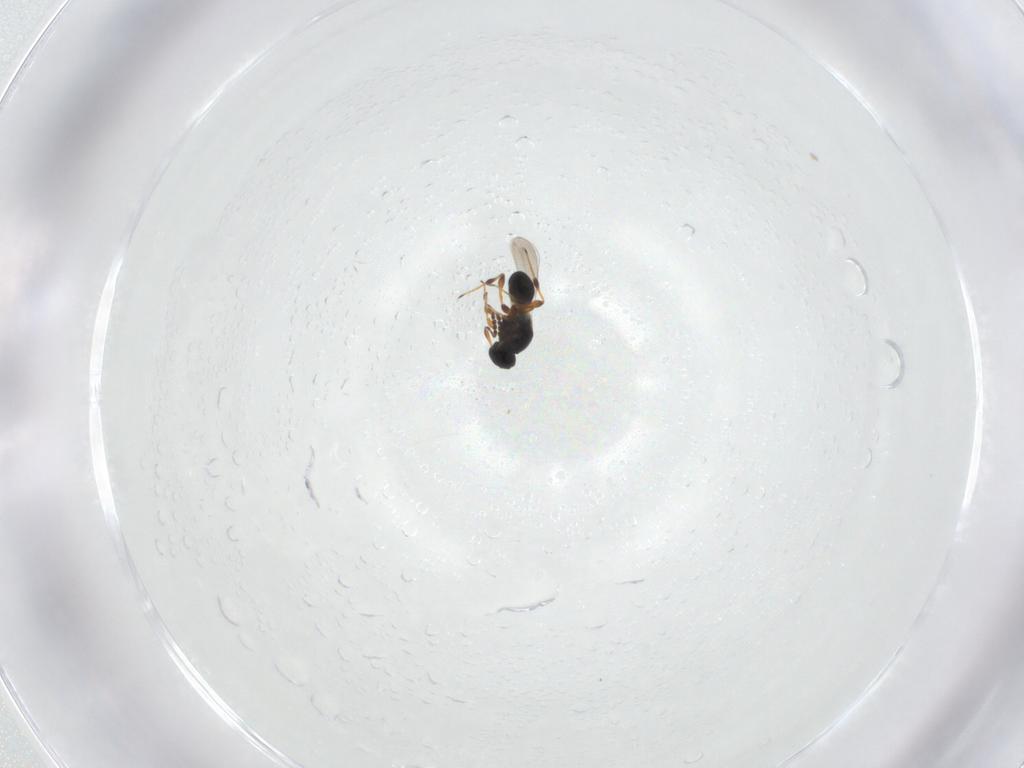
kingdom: Animalia
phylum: Arthropoda
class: Insecta
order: Hymenoptera
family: Platygastridae
